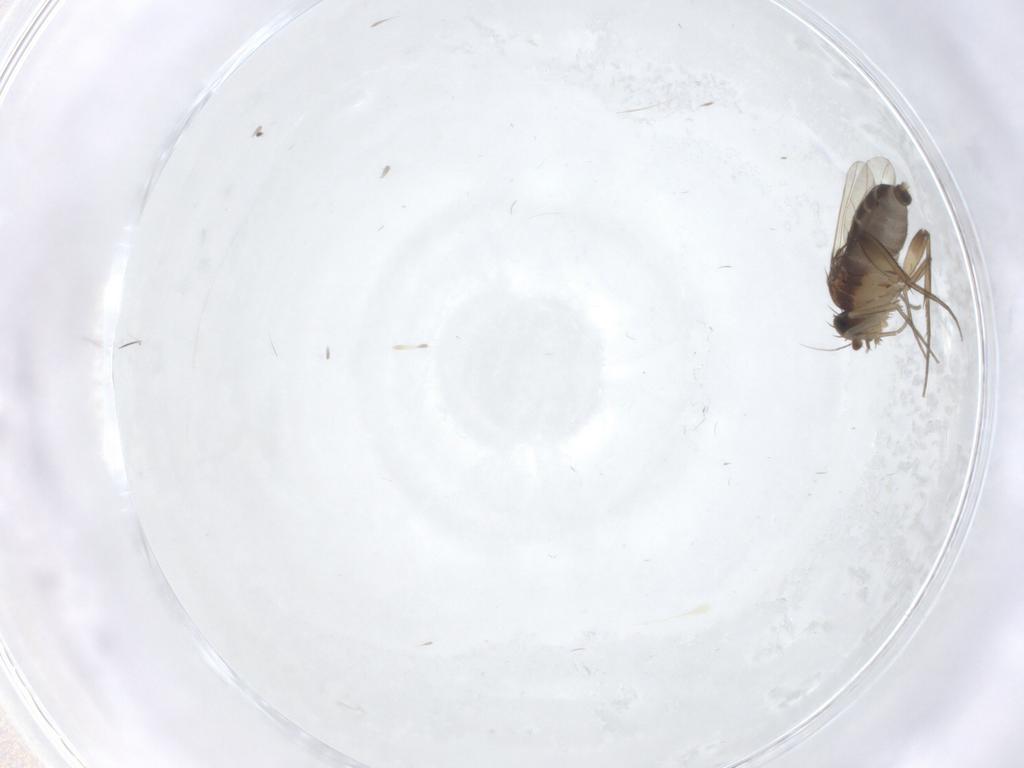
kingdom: Animalia
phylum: Arthropoda
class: Insecta
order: Diptera
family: Phoridae
